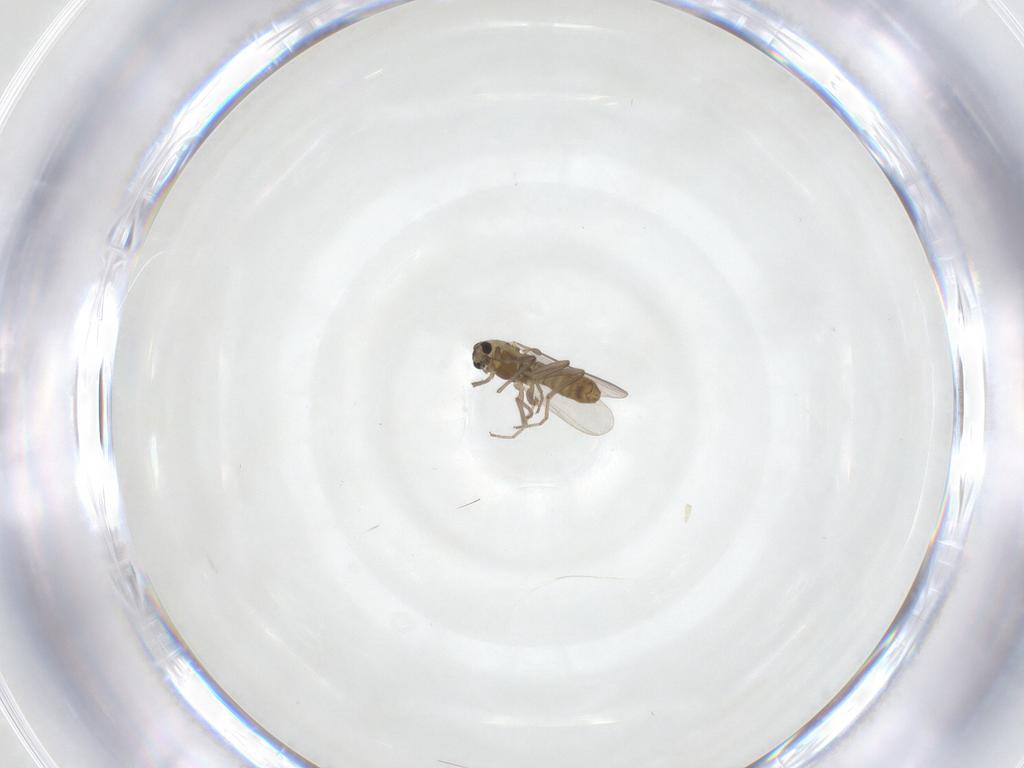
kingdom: Animalia
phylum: Arthropoda
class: Insecta
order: Diptera
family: Chironomidae
